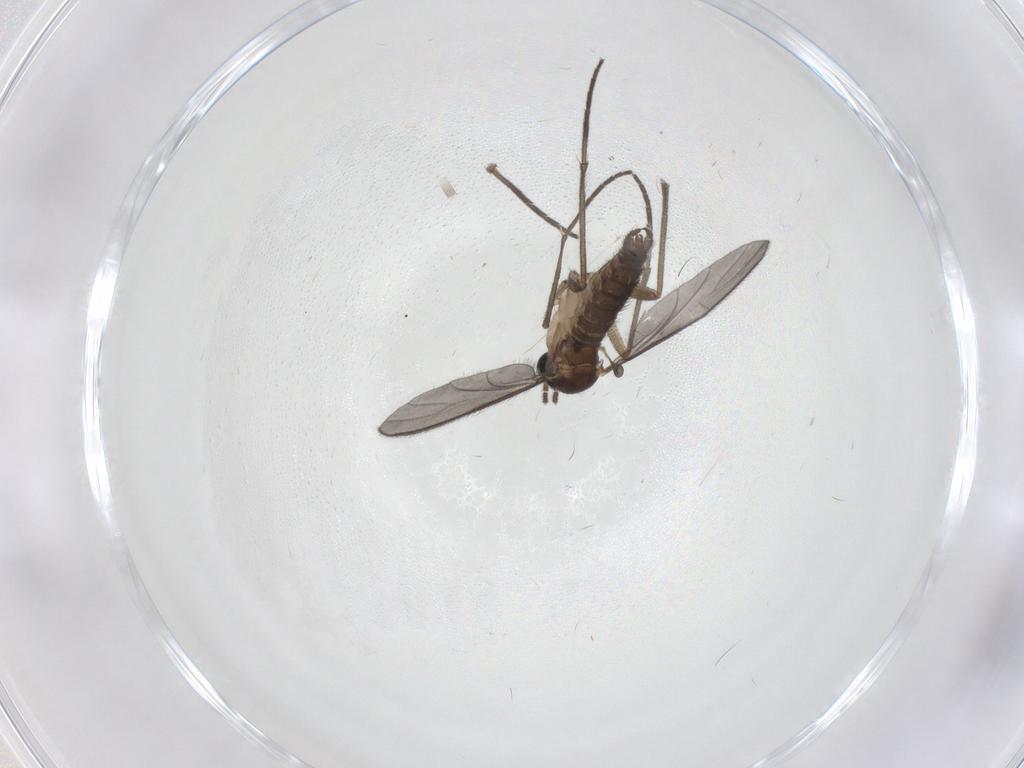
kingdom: Animalia
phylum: Arthropoda
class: Insecta
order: Diptera
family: Sciaridae
